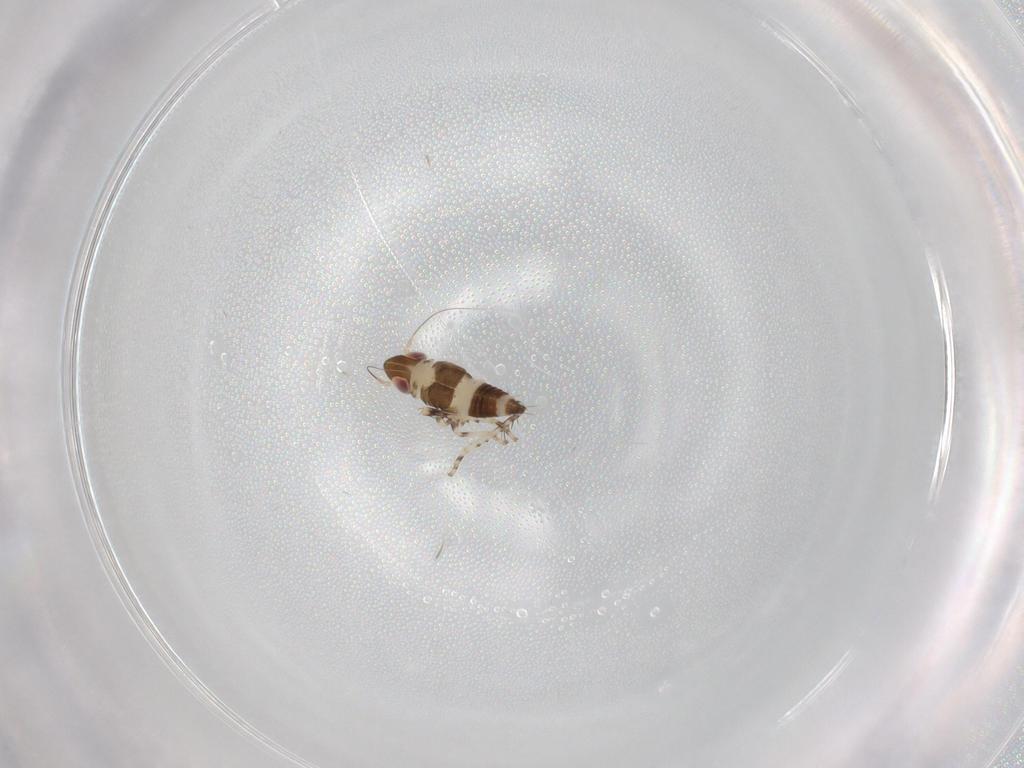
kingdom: Animalia
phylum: Arthropoda
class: Insecta
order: Hemiptera
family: Cicadellidae
